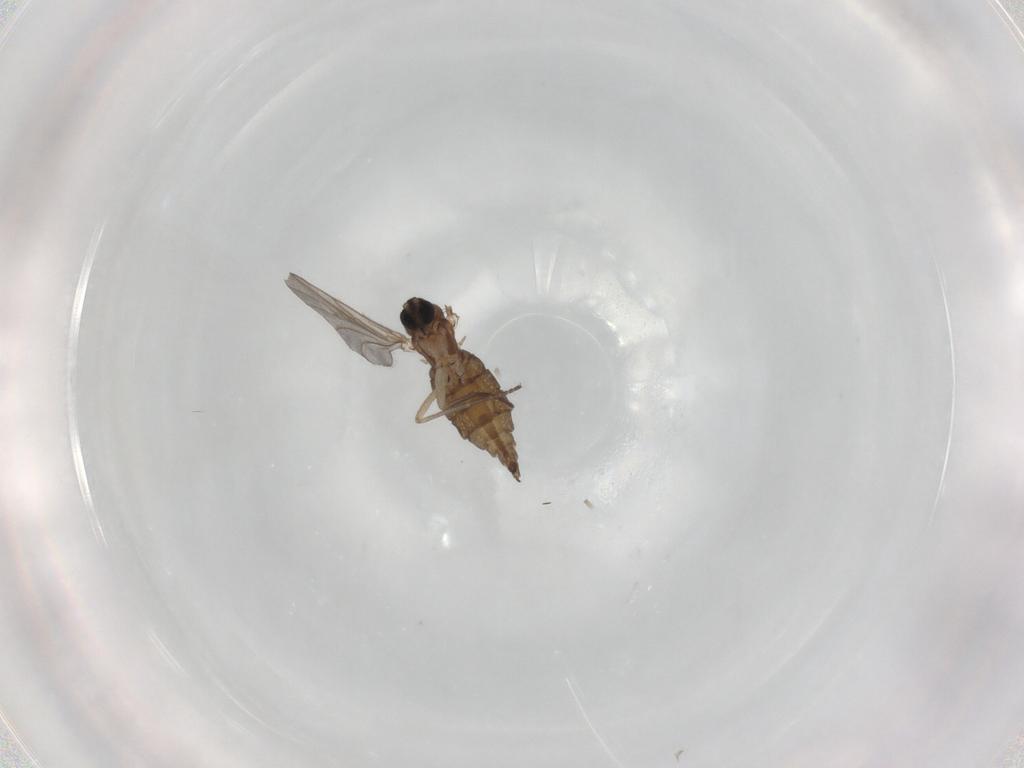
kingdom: Animalia
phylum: Arthropoda
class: Insecta
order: Diptera
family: Sciaridae
